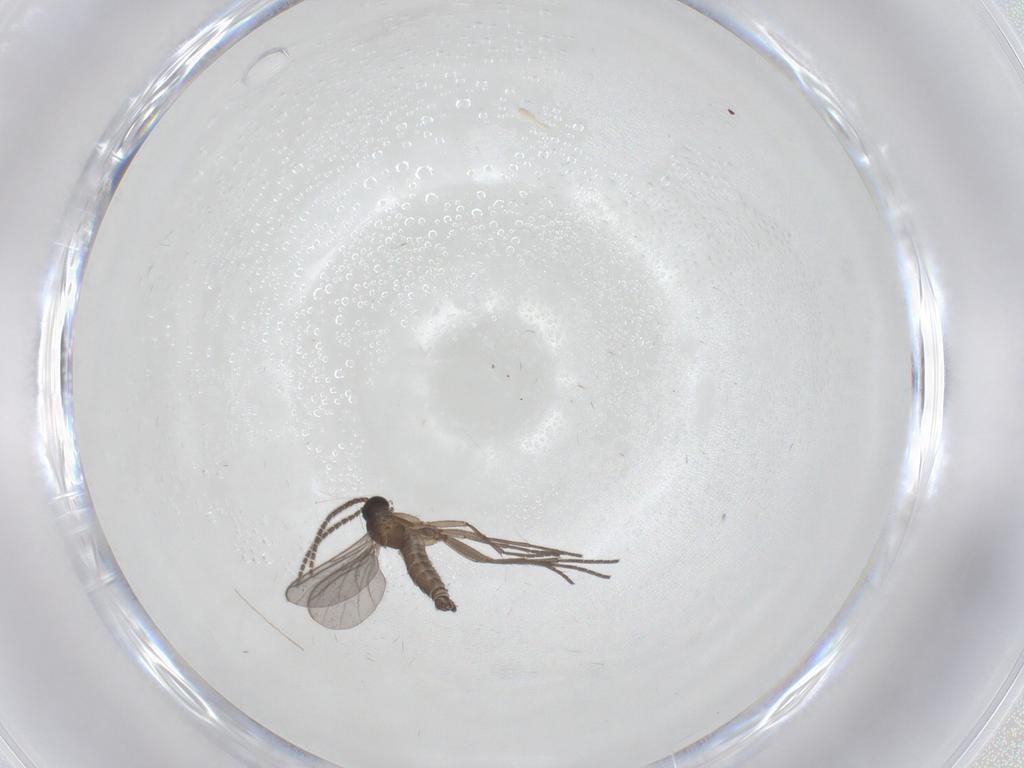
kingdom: Animalia
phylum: Arthropoda
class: Insecta
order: Diptera
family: Sciaridae
